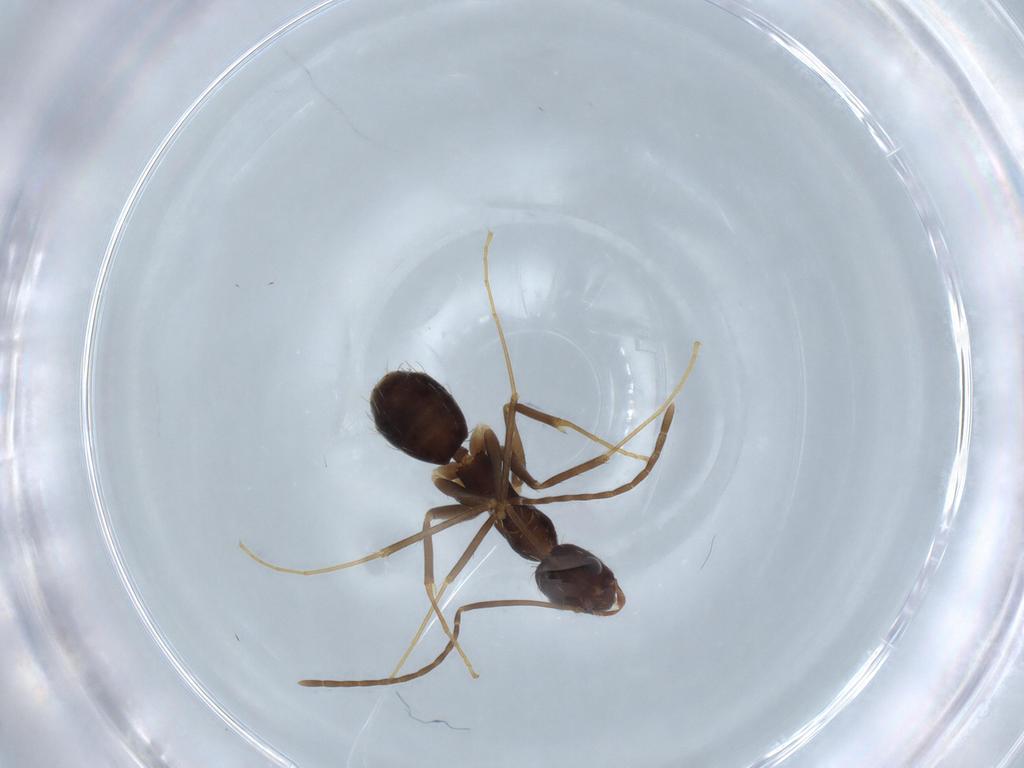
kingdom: Animalia
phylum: Arthropoda
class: Insecta
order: Hymenoptera
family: Formicidae
